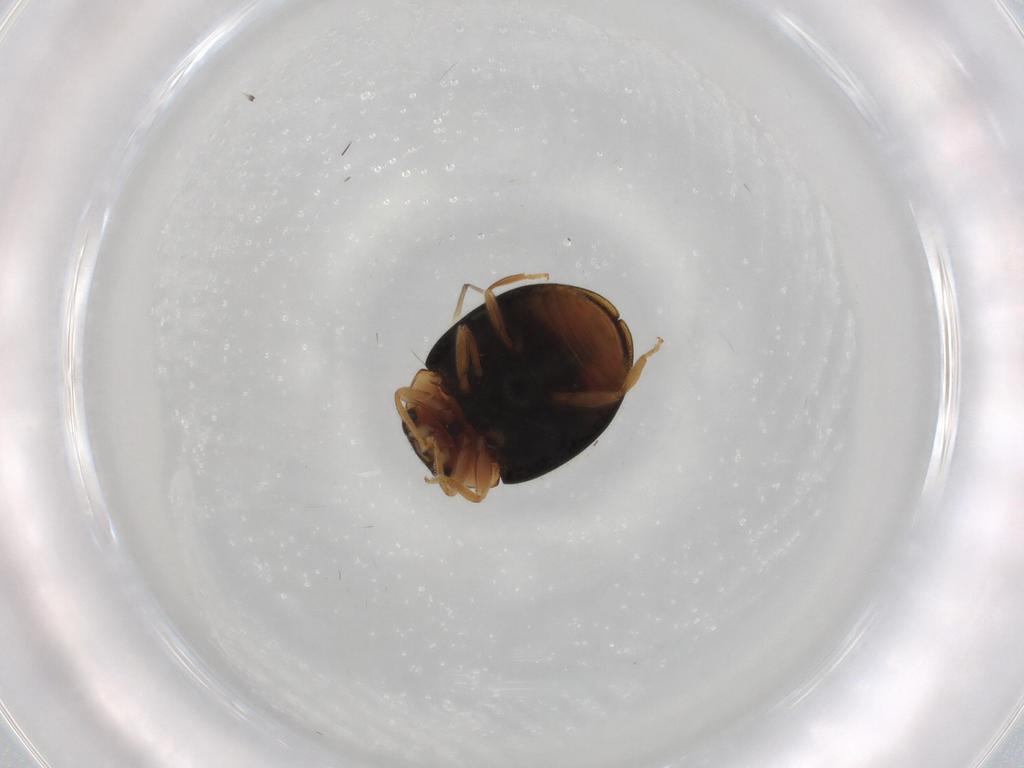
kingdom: Animalia
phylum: Arthropoda
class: Insecta
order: Coleoptera
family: Coccinellidae
